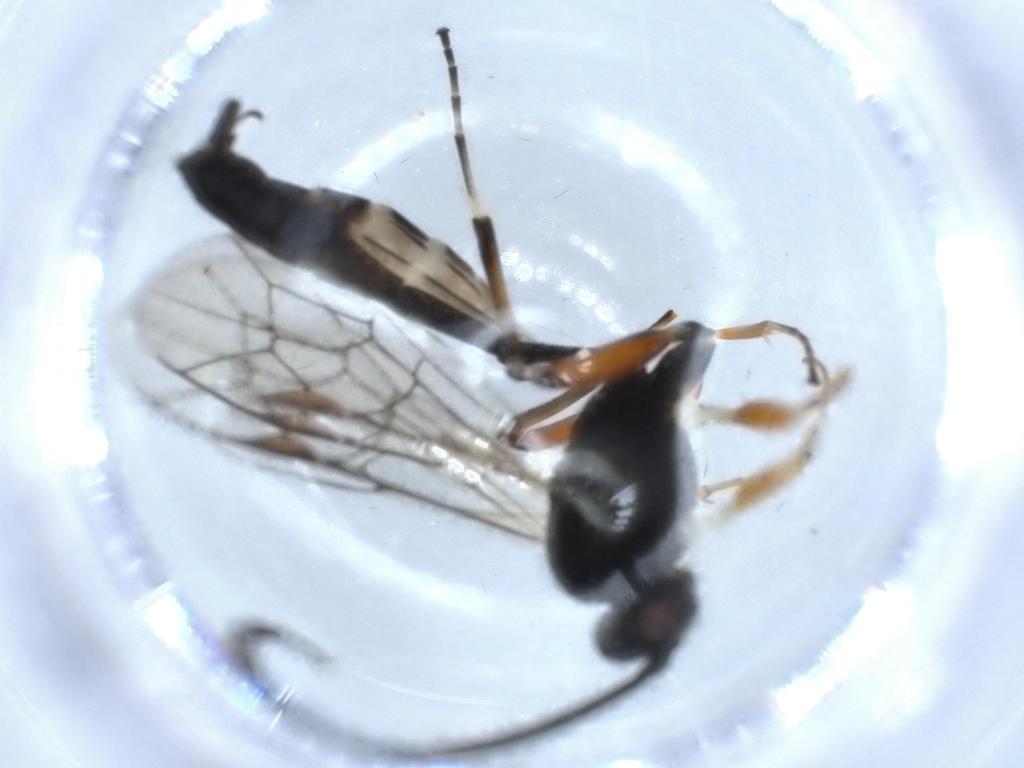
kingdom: Animalia
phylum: Arthropoda
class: Insecta
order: Hymenoptera
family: Ichneumonidae
